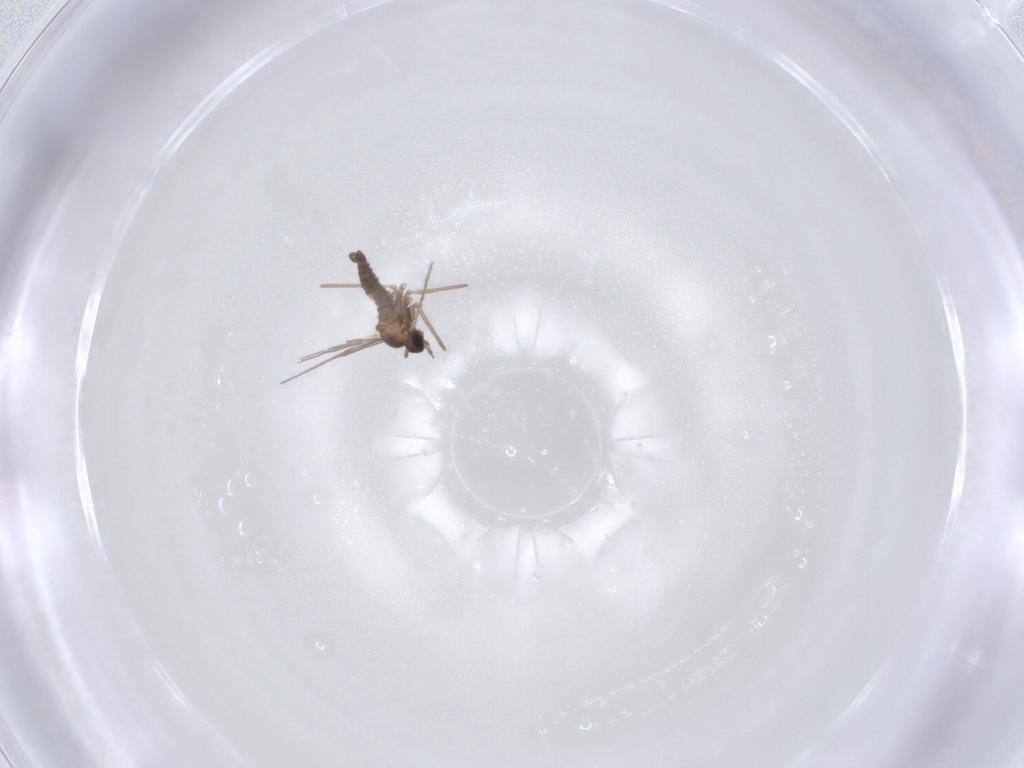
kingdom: Animalia
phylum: Arthropoda
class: Insecta
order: Diptera
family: Cecidomyiidae
